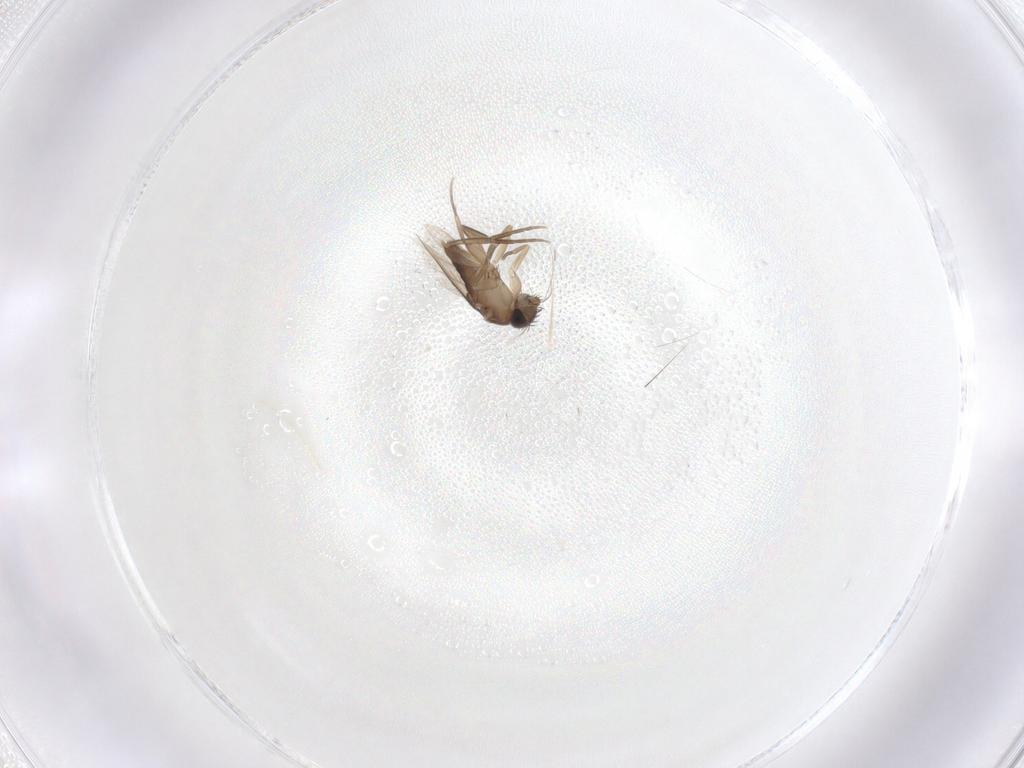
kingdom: Animalia
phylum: Arthropoda
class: Insecta
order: Diptera
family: Phoridae
